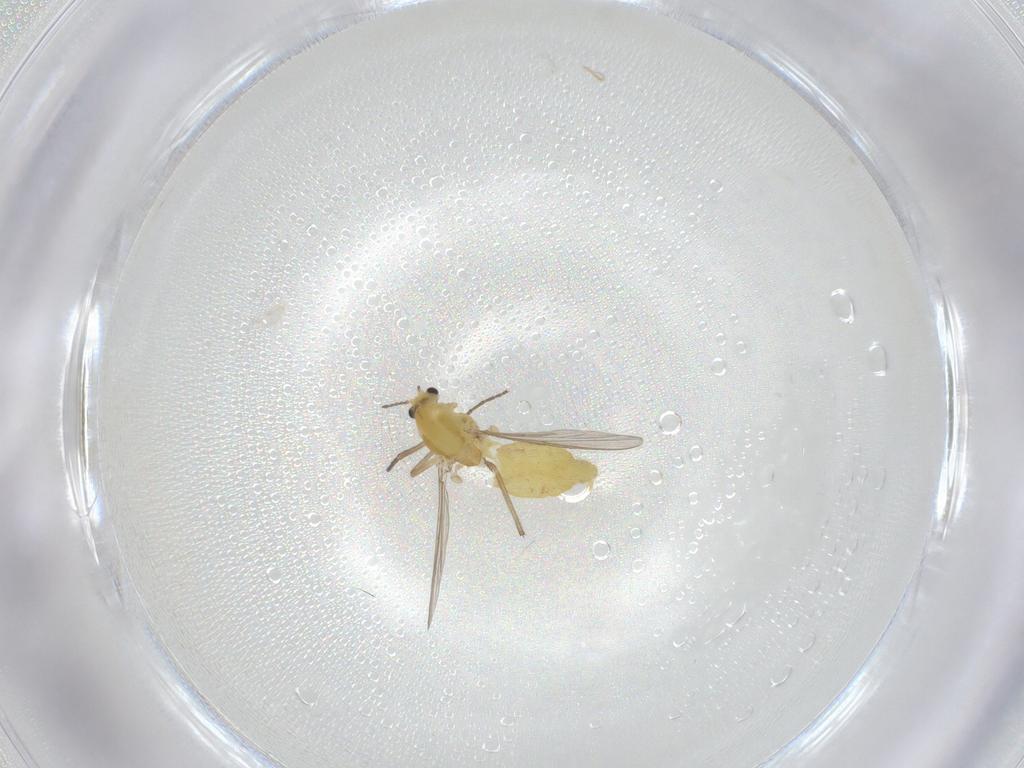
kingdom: Animalia
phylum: Arthropoda
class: Insecta
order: Diptera
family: Chironomidae
